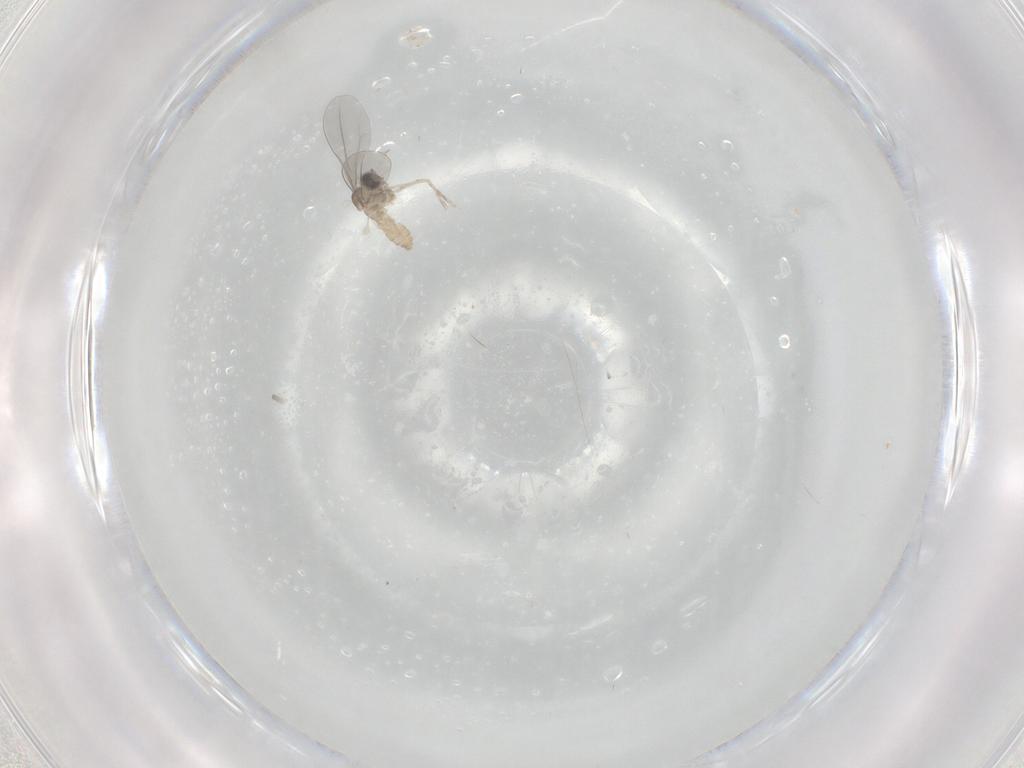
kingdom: Animalia
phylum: Arthropoda
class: Insecta
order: Diptera
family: Cecidomyiidae
